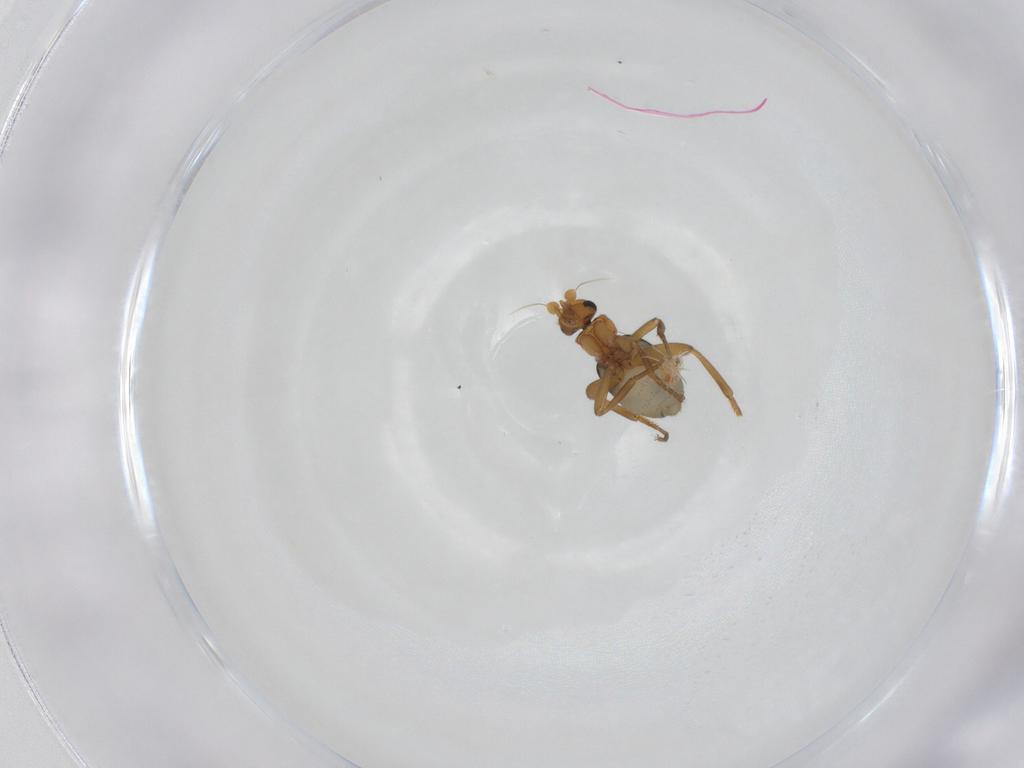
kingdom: Animalia
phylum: Arthropoda
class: Insecta
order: Diptera
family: Phoridae
